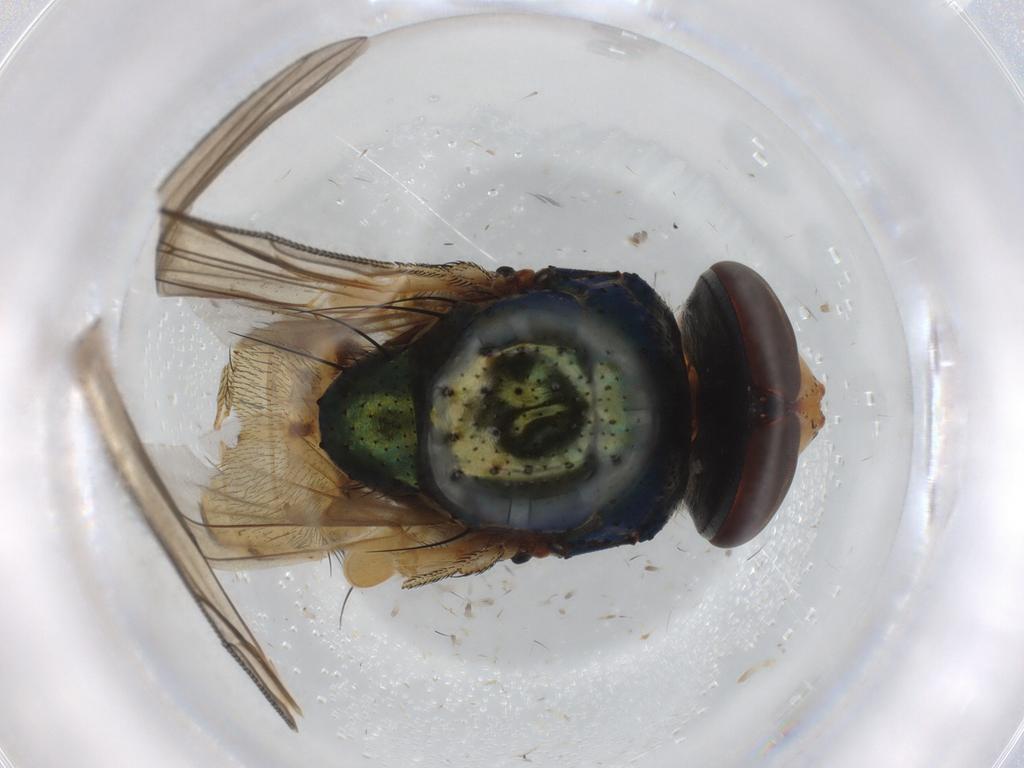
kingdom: Animalia
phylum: Arthropoda
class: Insecta
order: Diptera
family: Calliphoridae
